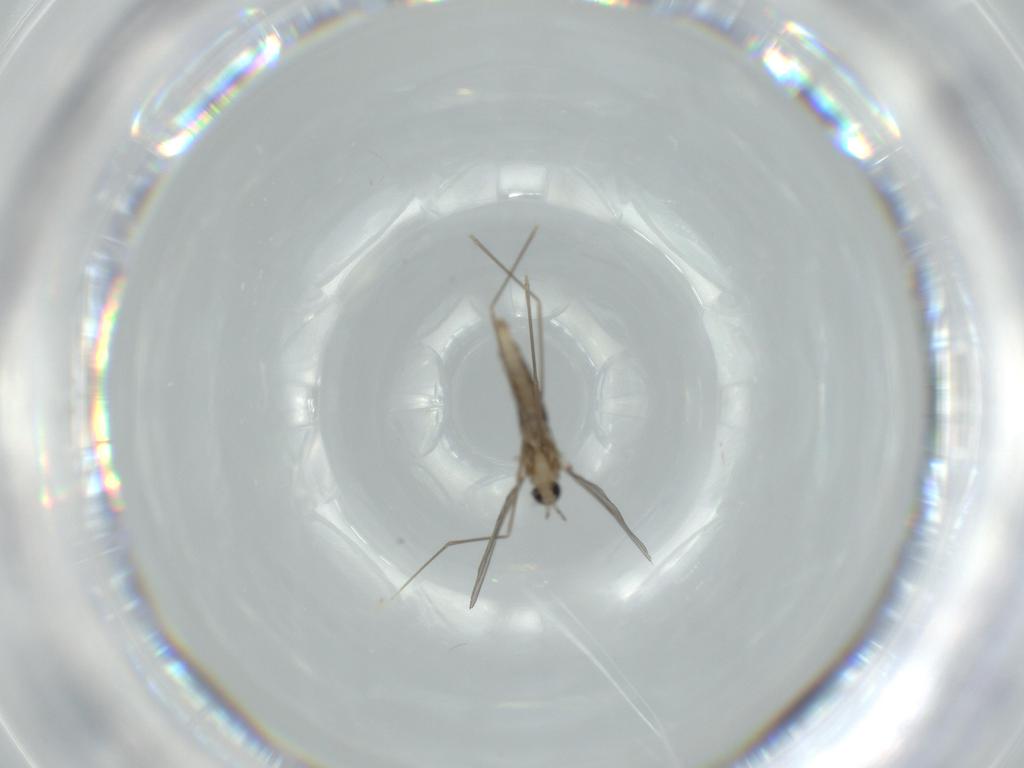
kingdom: Animalia
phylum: Arthropoda
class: Insecta
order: Diptera
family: Cecidomyiidae
